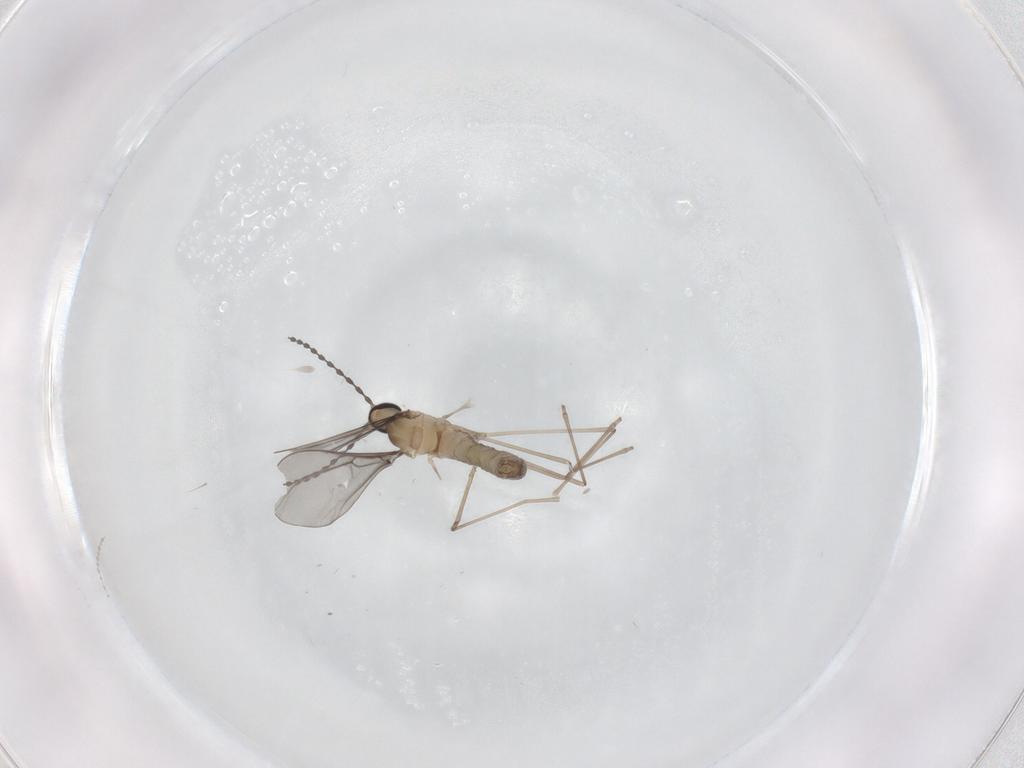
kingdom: Animalia
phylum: Arthropoda
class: Insecta
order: Diptera
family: Cecidomyiidae
